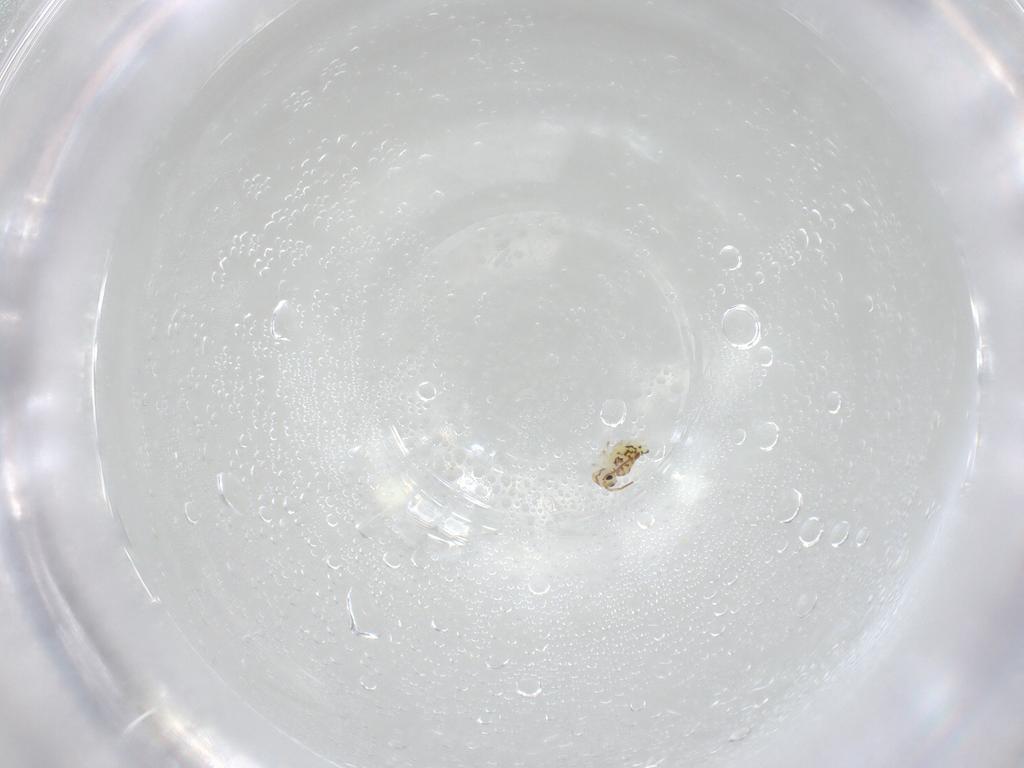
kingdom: Animalia
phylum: Arthropoda
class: Collembola
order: Symphypleona
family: Bourletiellidae
